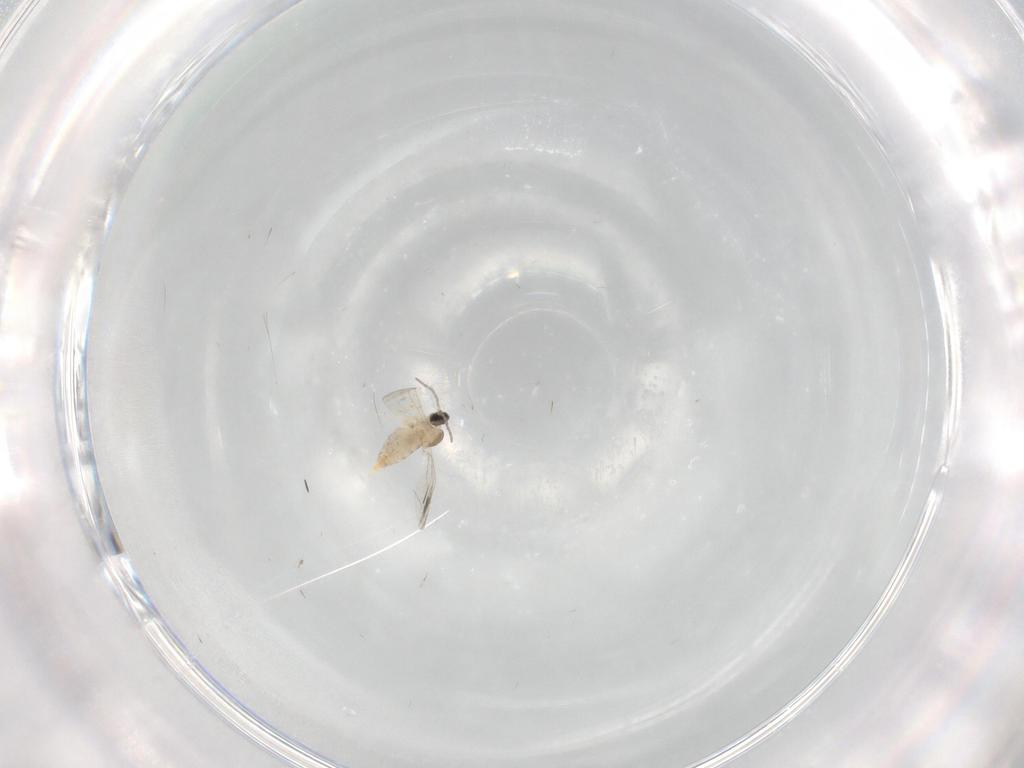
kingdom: Animalia
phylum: Arthropoda
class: Insecta
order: Diptera
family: Cecidomyiidae
